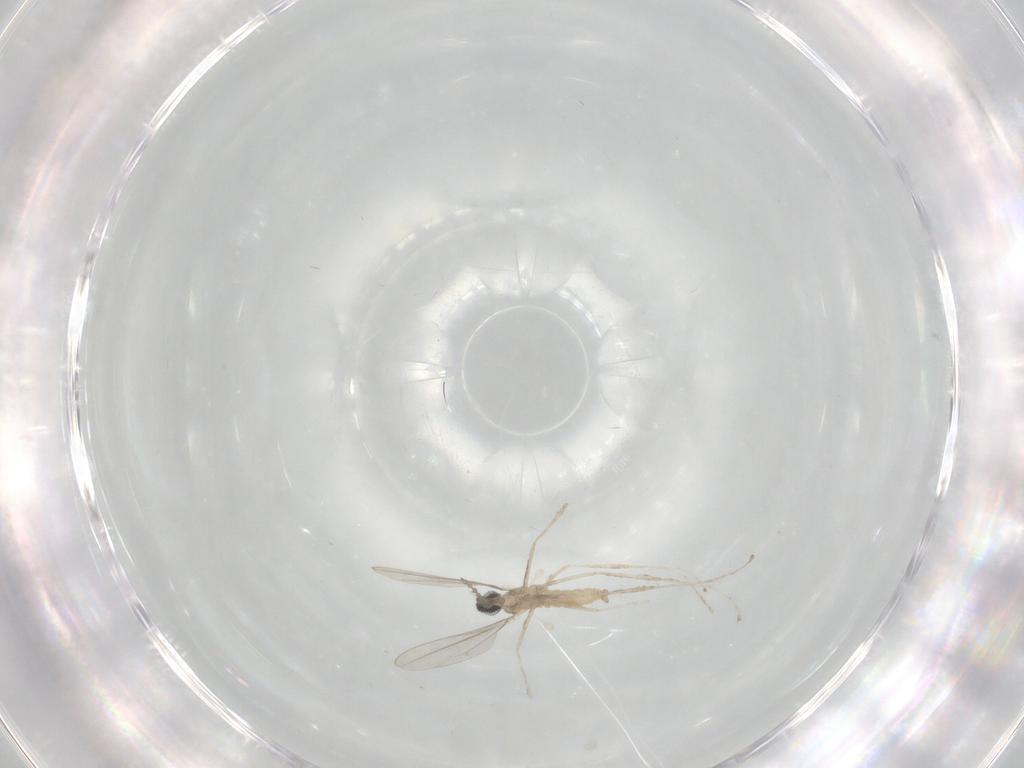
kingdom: Animalia
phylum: Arthropoda
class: Insecta
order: Diptera
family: Cecidomyiidae
